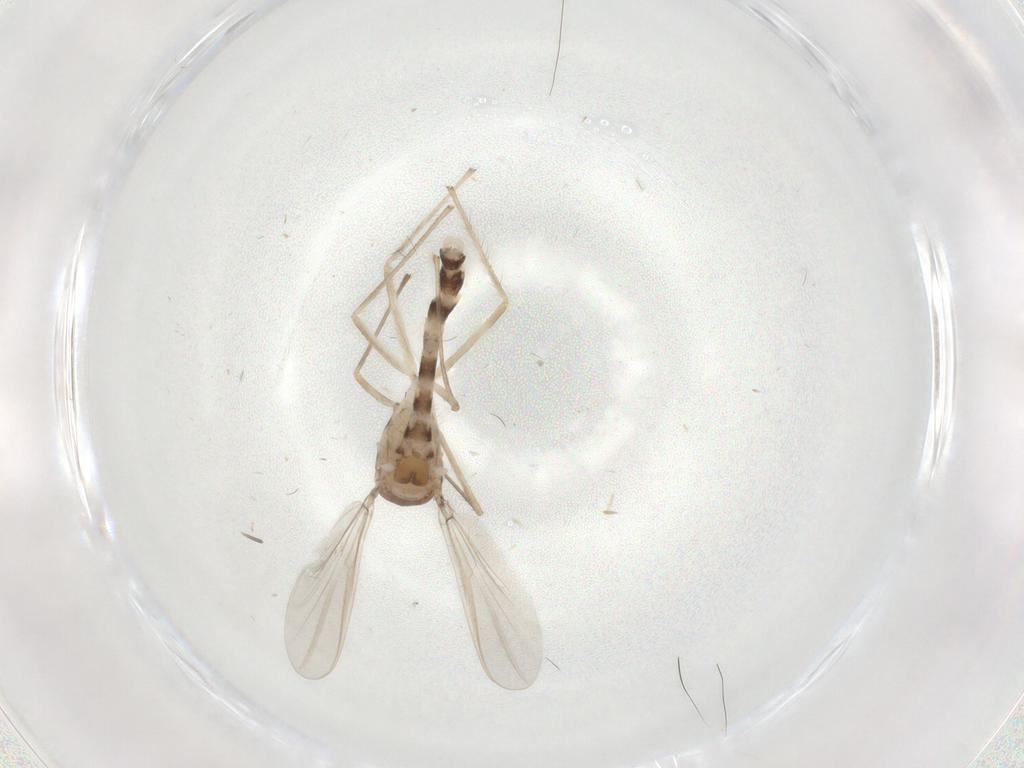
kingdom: Animalia
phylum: Arthropoda
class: Insecta
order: Diptera
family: Chironomidae
